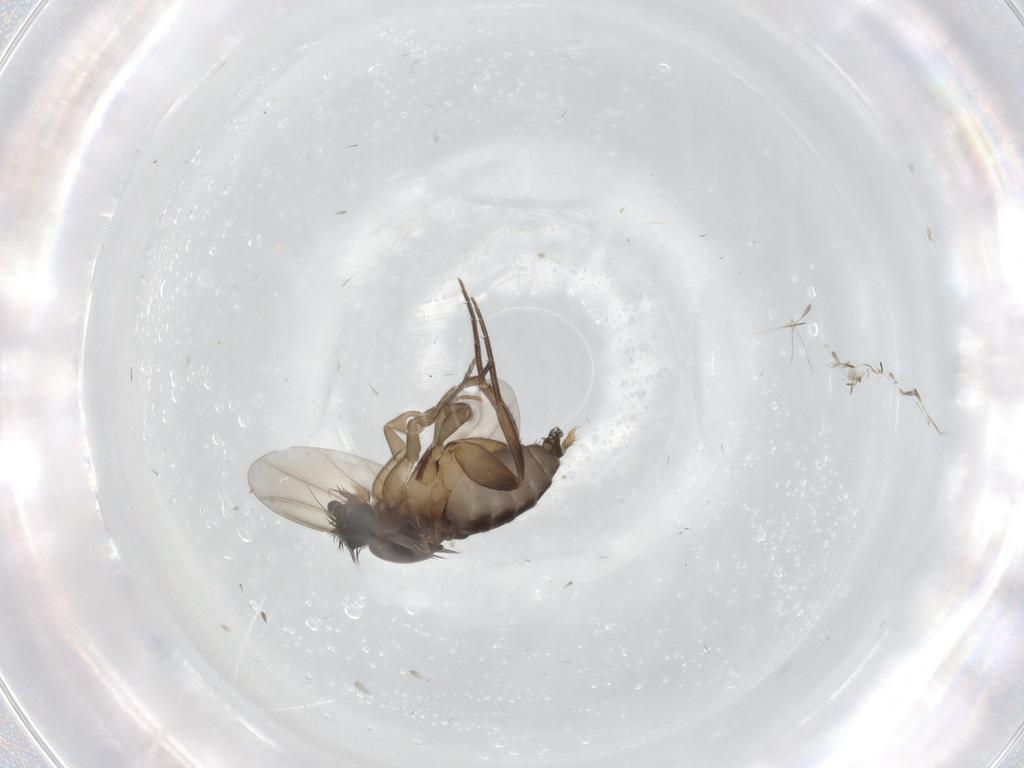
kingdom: Animalia
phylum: Arthropoda
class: Insecta
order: Diptera
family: Phoridae
